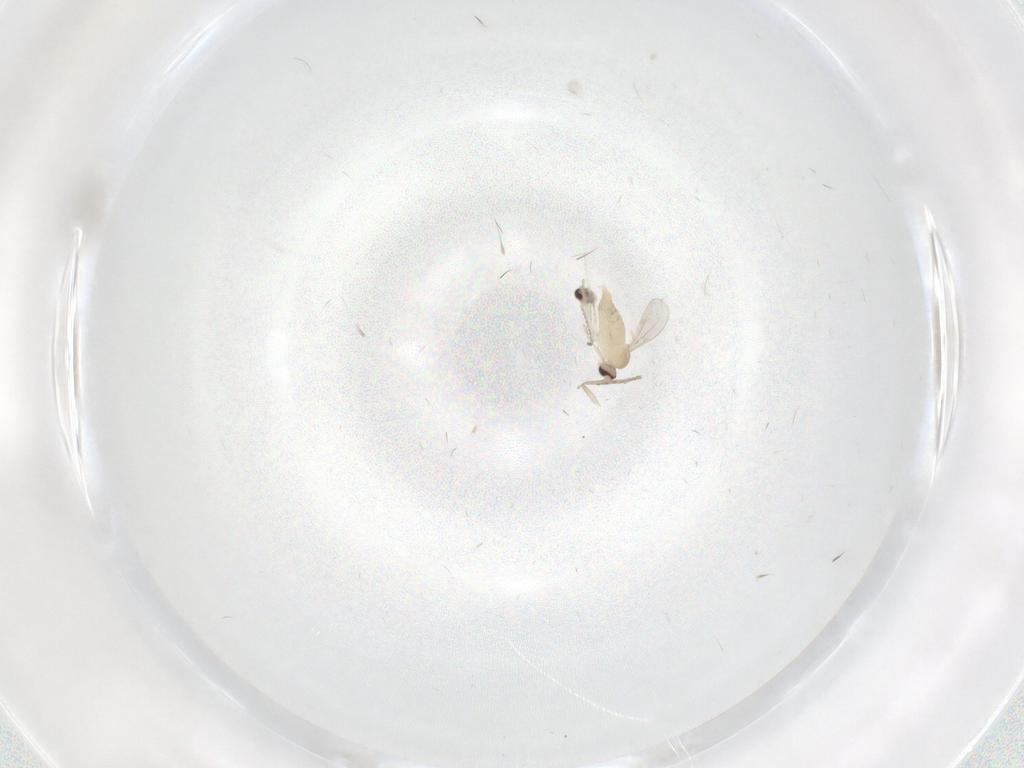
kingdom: Animalia
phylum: Arthropoda
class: Insecta
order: Diptera
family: Cecidomyiidae
